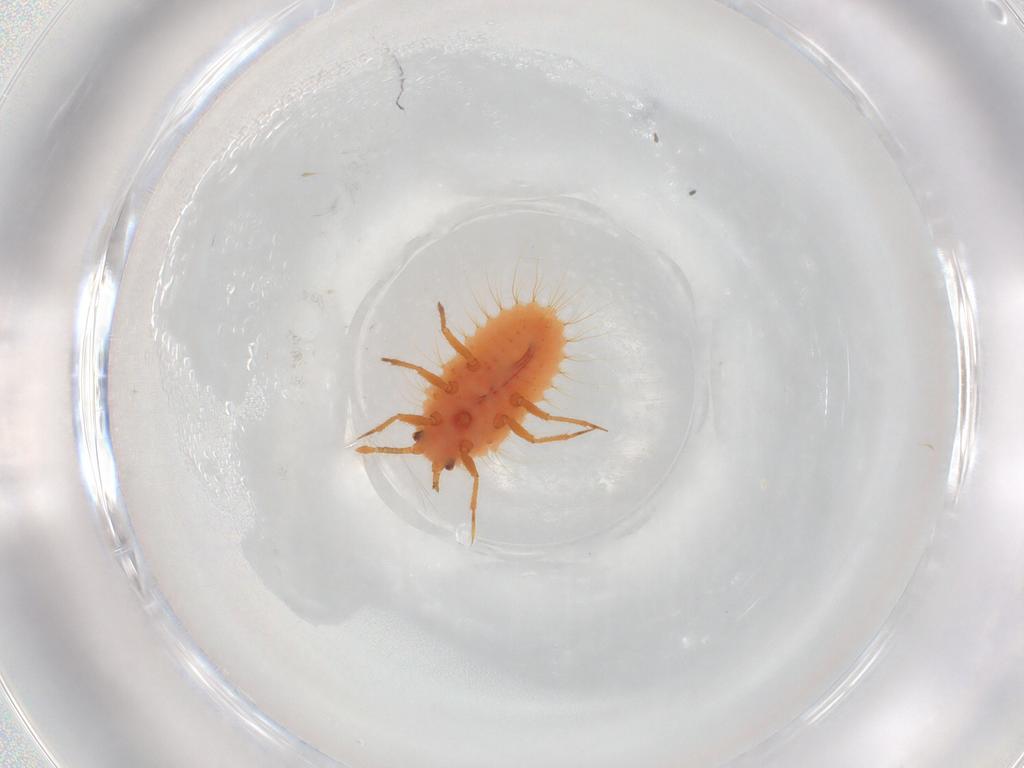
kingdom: Animalia
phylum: Arthropoda
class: Insecta
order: Hemiptera
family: Coccoidea_incertae_sedis
